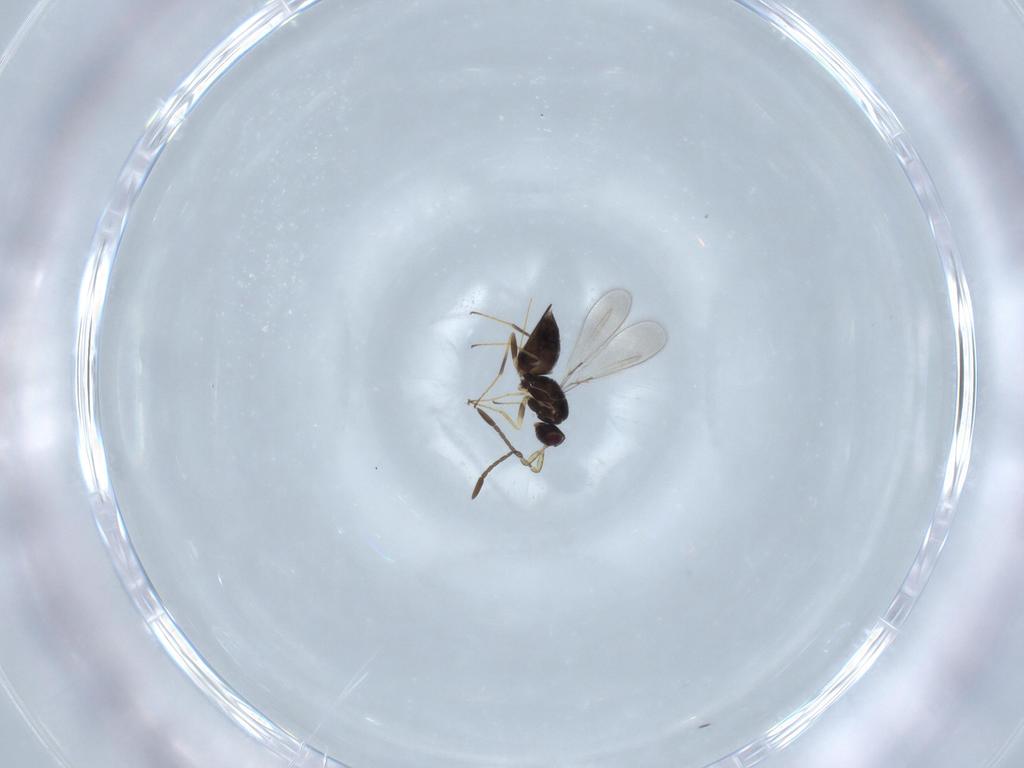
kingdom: Animalia
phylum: Arthropoda
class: Insecta
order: Hymenoptera
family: Mymaridae
